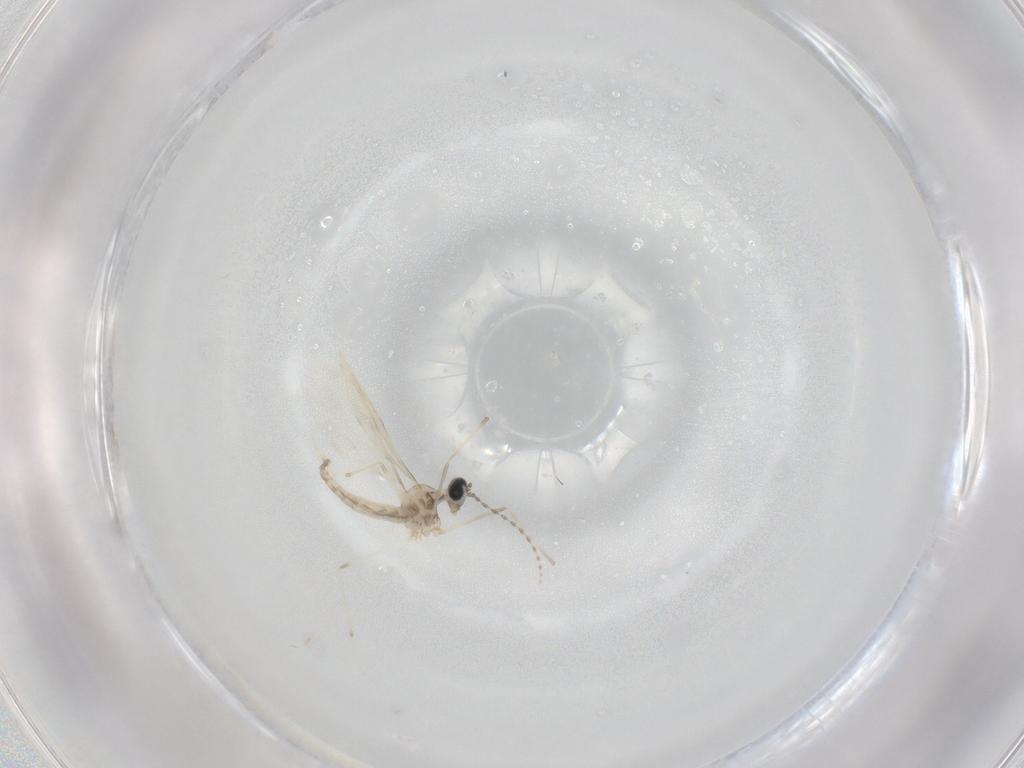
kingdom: Animalia
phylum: Arthropoda
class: Insecta
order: Diptera
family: Cecidomyiidae
